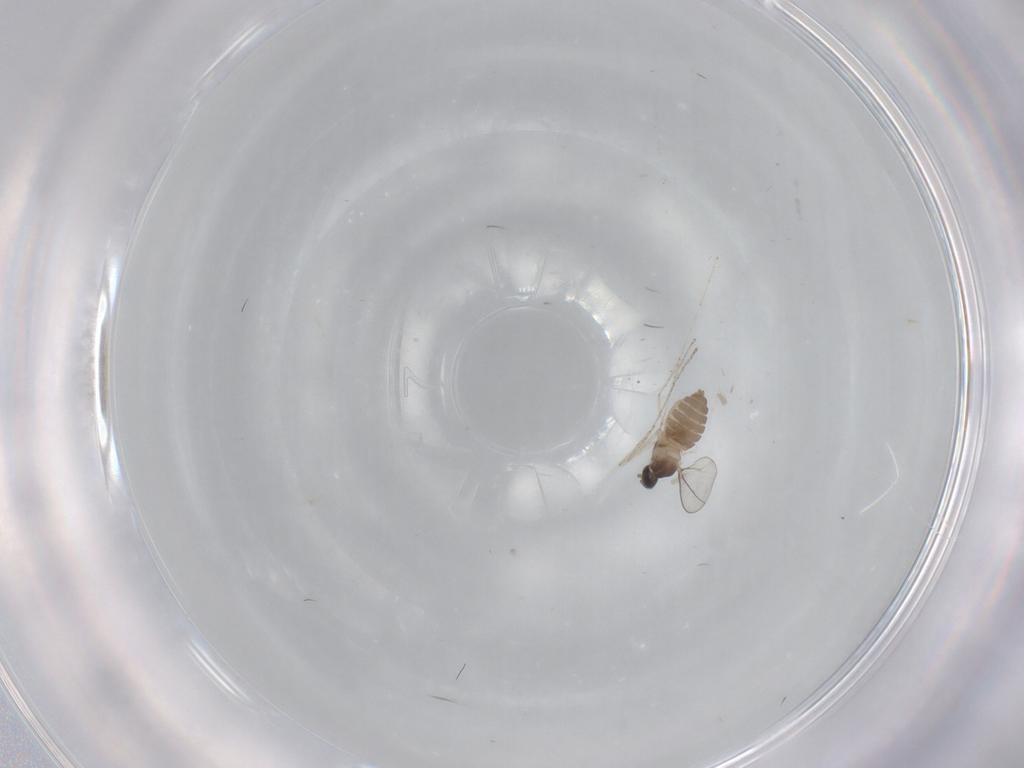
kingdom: Animalia
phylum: Arthropoda
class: Insecta
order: Diptera
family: Cecidomyiidae
